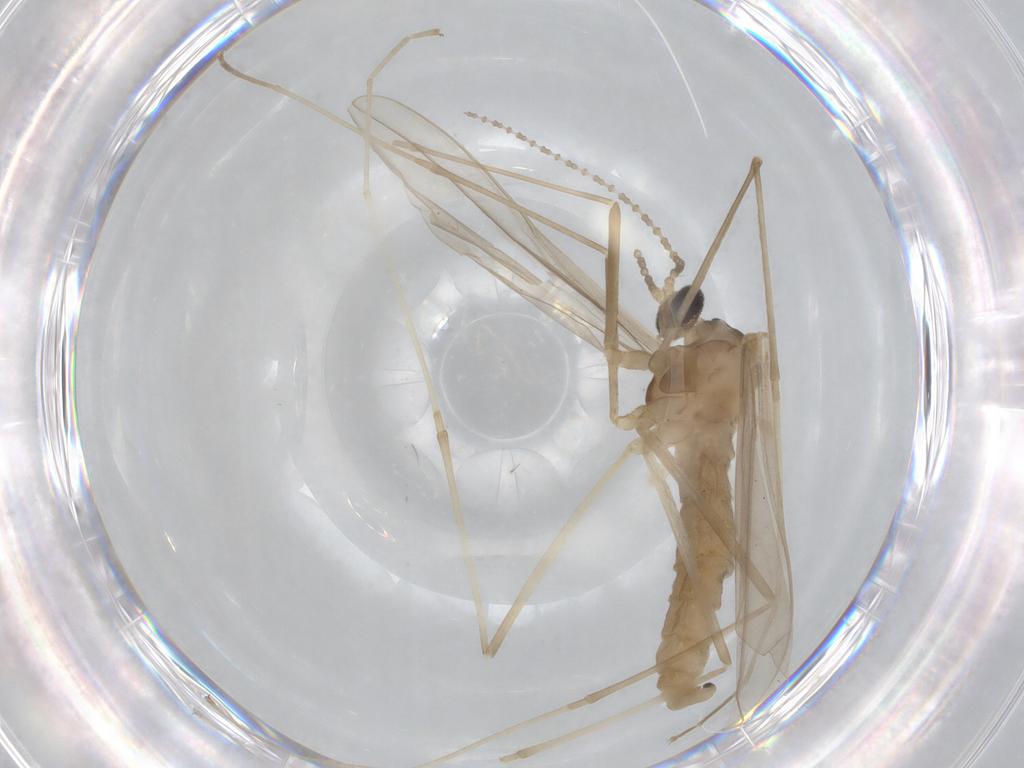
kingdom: Animalia
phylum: Arthropoda
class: Insecta
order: Diptera
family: Cecidomyiidae
